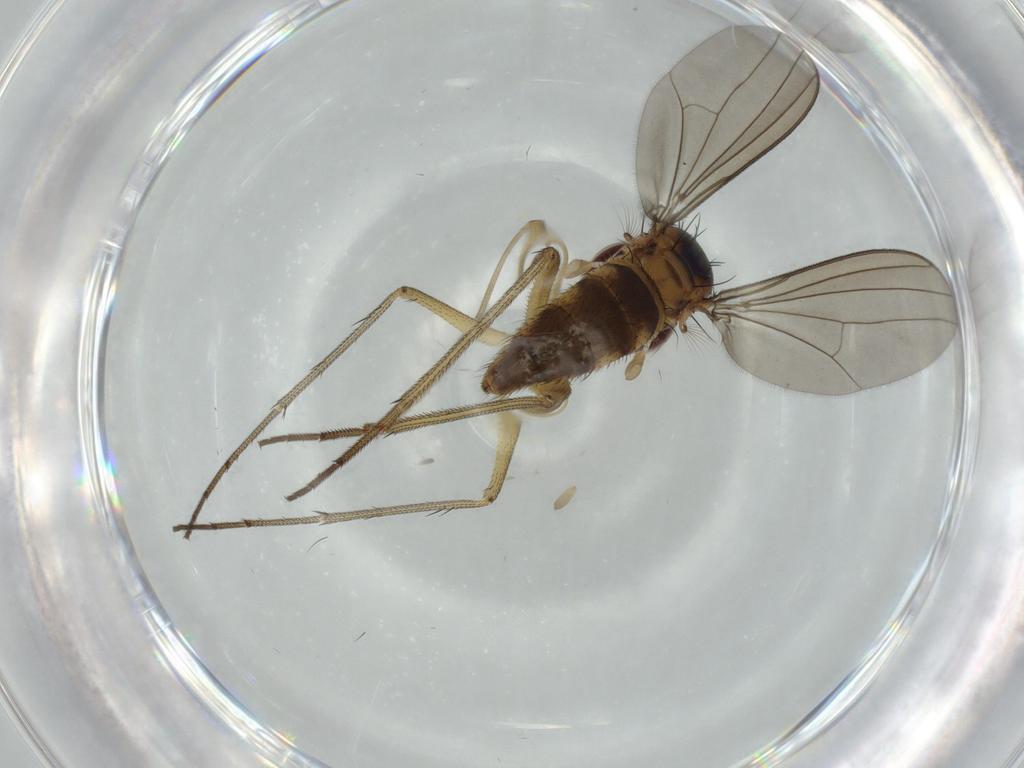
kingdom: Animalia
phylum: Arthropoda
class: Insecta
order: Diptera
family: Dolichopodidae
